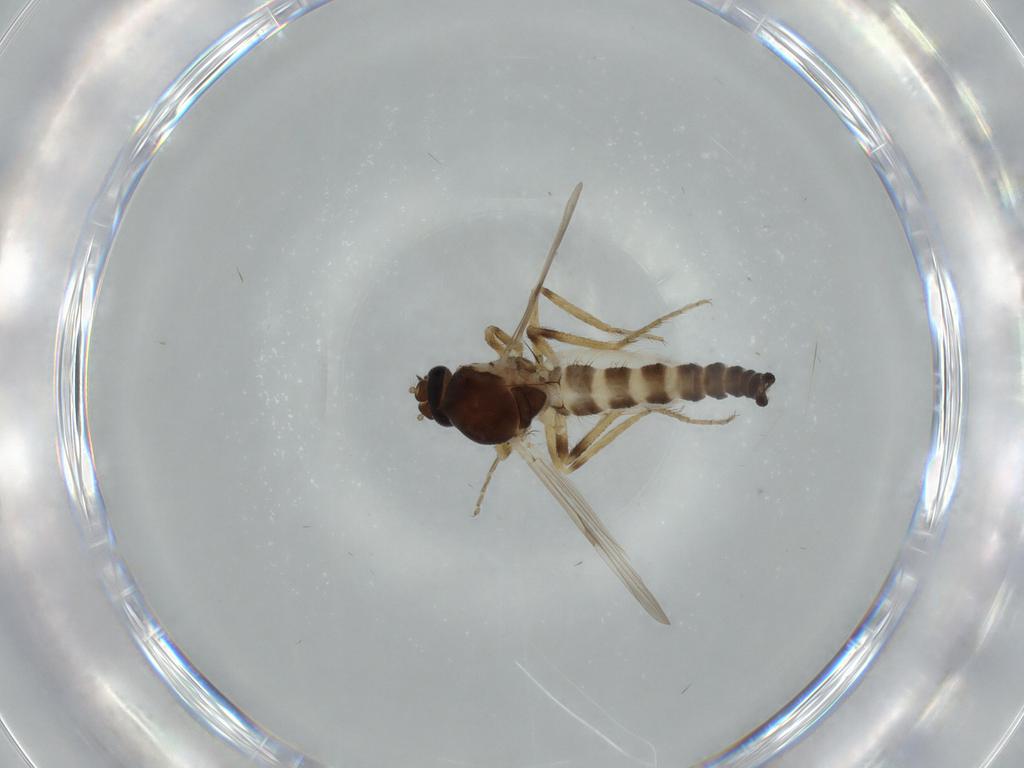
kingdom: Animalia
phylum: Arthropoda
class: Insecta
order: Diptera
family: Ceratopogonidae
